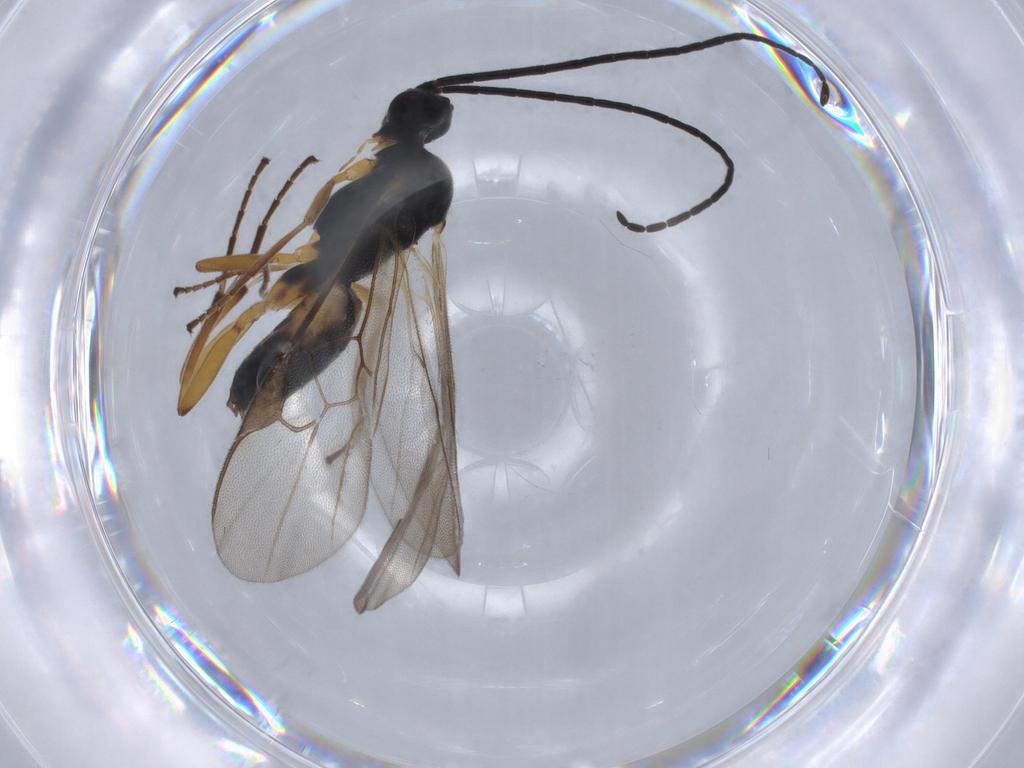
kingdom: Animalia
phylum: Arthropoda
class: Insecta
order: Hymenoptera
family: Braconidae
